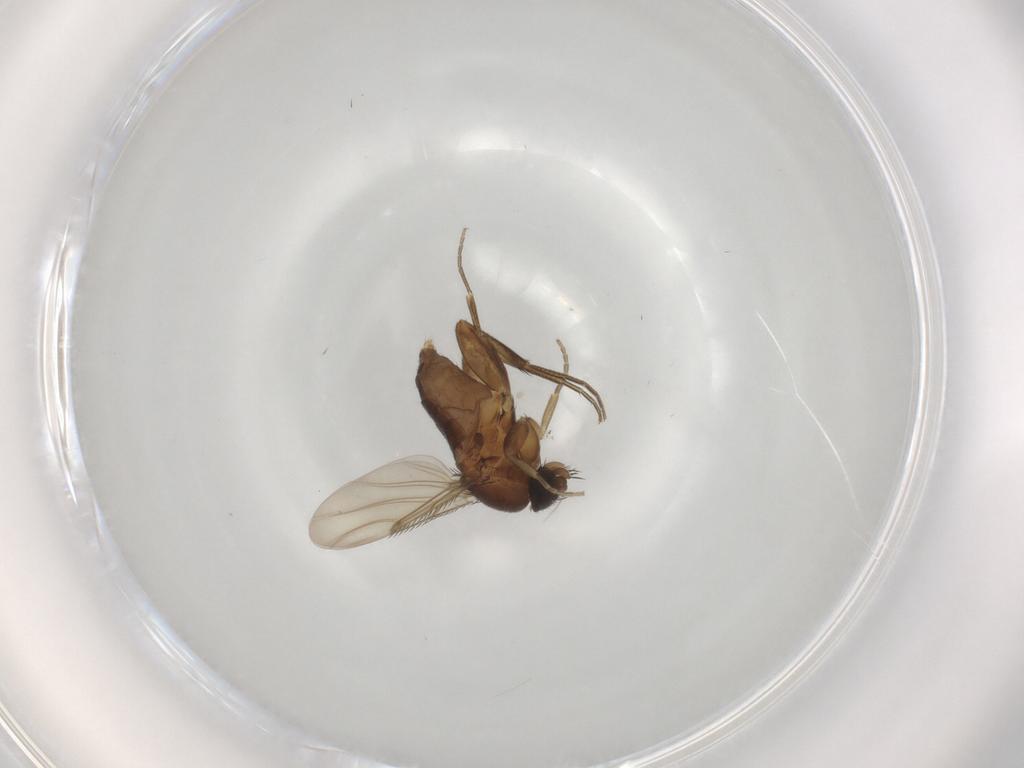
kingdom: Animalia
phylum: Arthropoda
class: Insecta
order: Diptera
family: Phoridae
